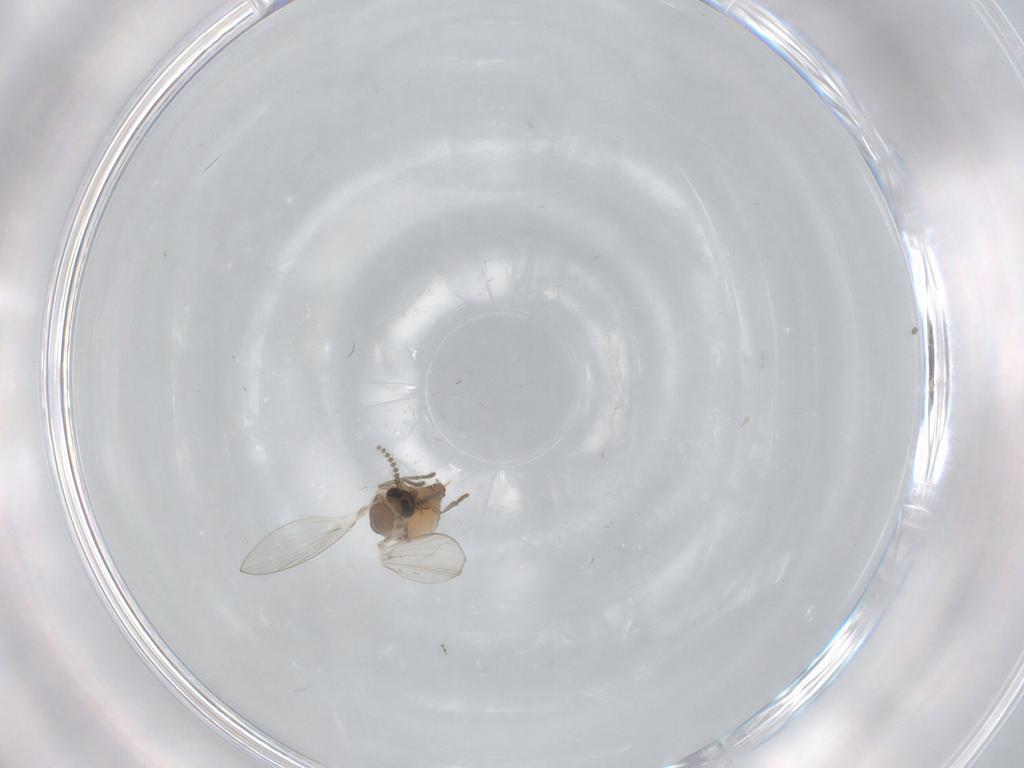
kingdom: Animalia
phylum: Arthropoda
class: Insecta
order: Diptera
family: Psychodidae
